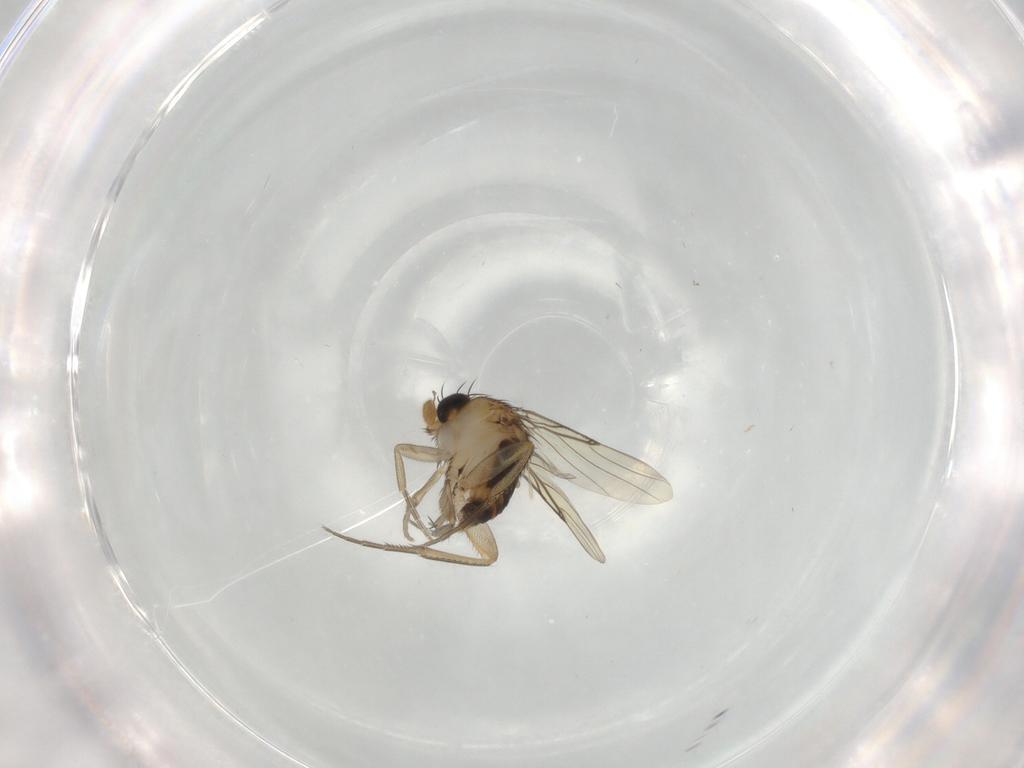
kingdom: Animalia
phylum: Arthropoda
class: Insecta
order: Diptera
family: Phoridae
